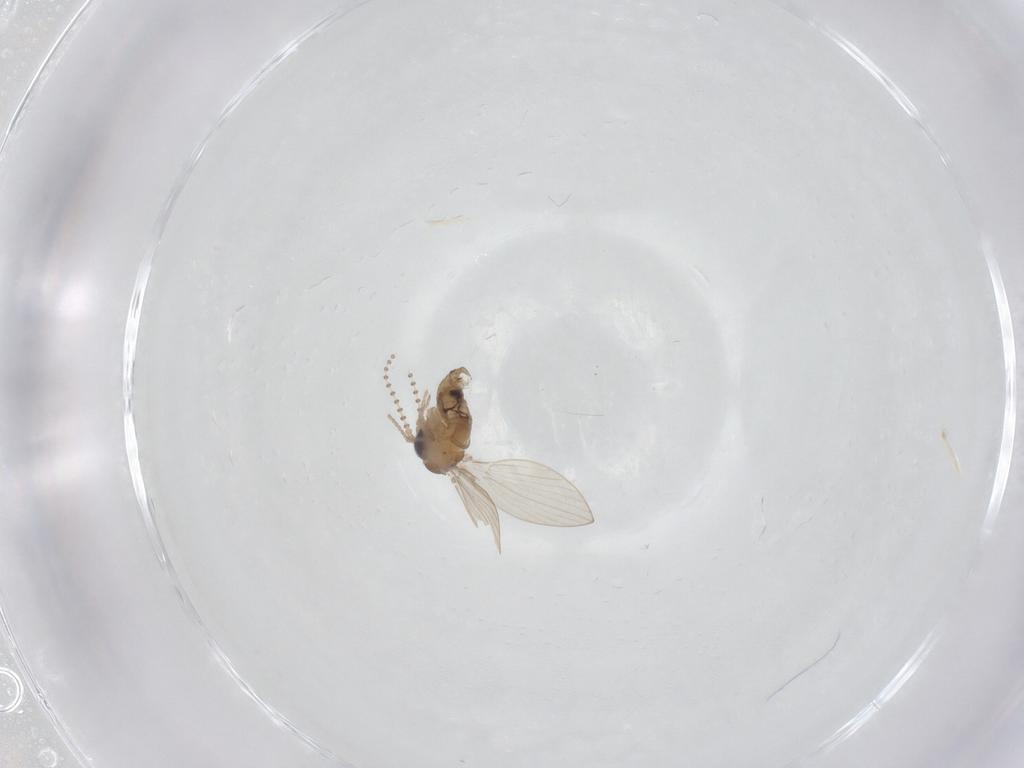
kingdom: Animalia
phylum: Arthropoda
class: Insecta
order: Diptera
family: Psychodidae
